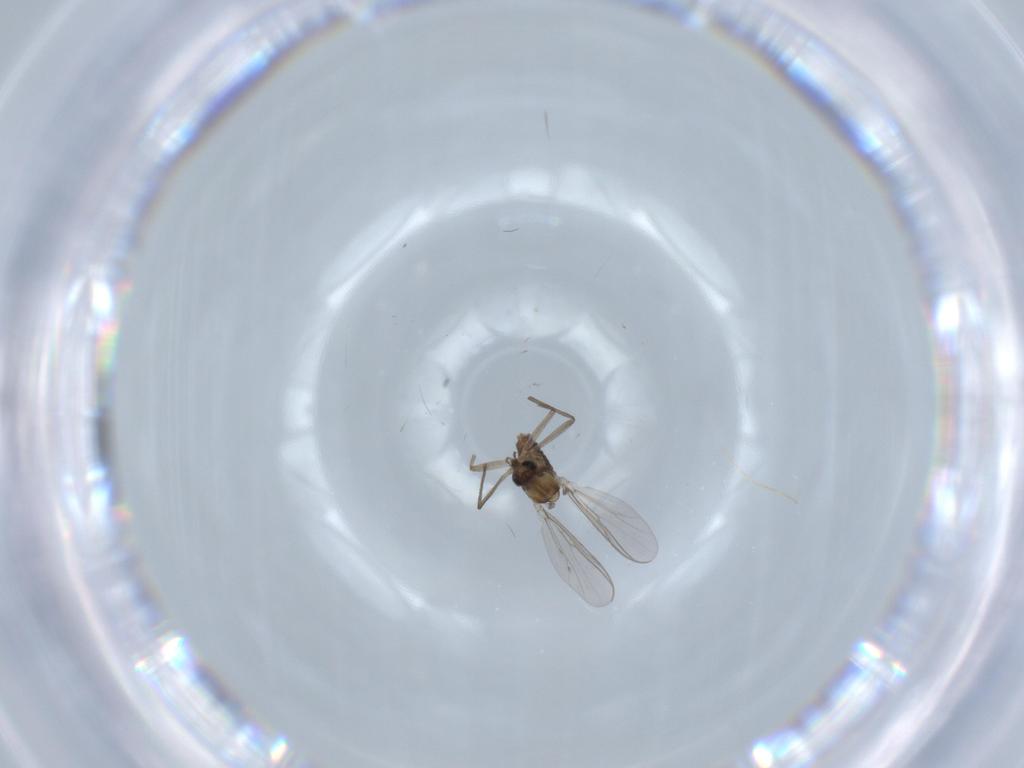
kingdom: Animalia
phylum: Arthropoda
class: Insecta
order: Diptera
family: Chironomidae
